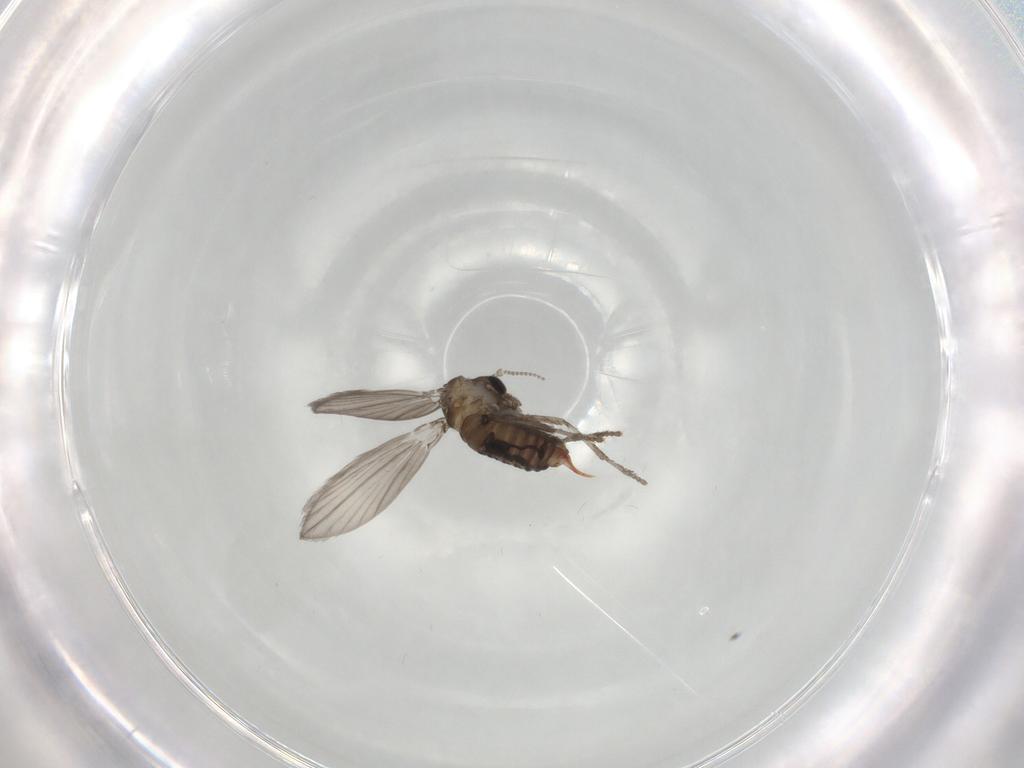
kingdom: Animalia
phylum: Arthropoda
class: Insecta
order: Diptera
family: Psychodidae
